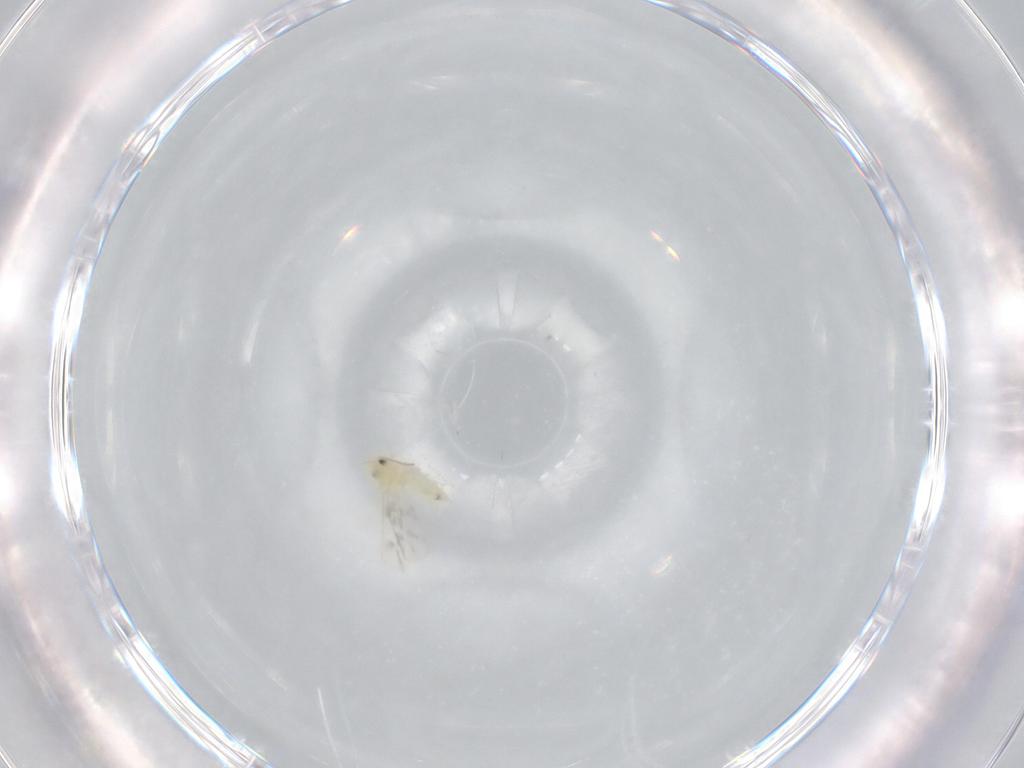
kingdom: Animalia
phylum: Arthropoda
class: Insecta
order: Hemiptera
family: Aleyrodidae
